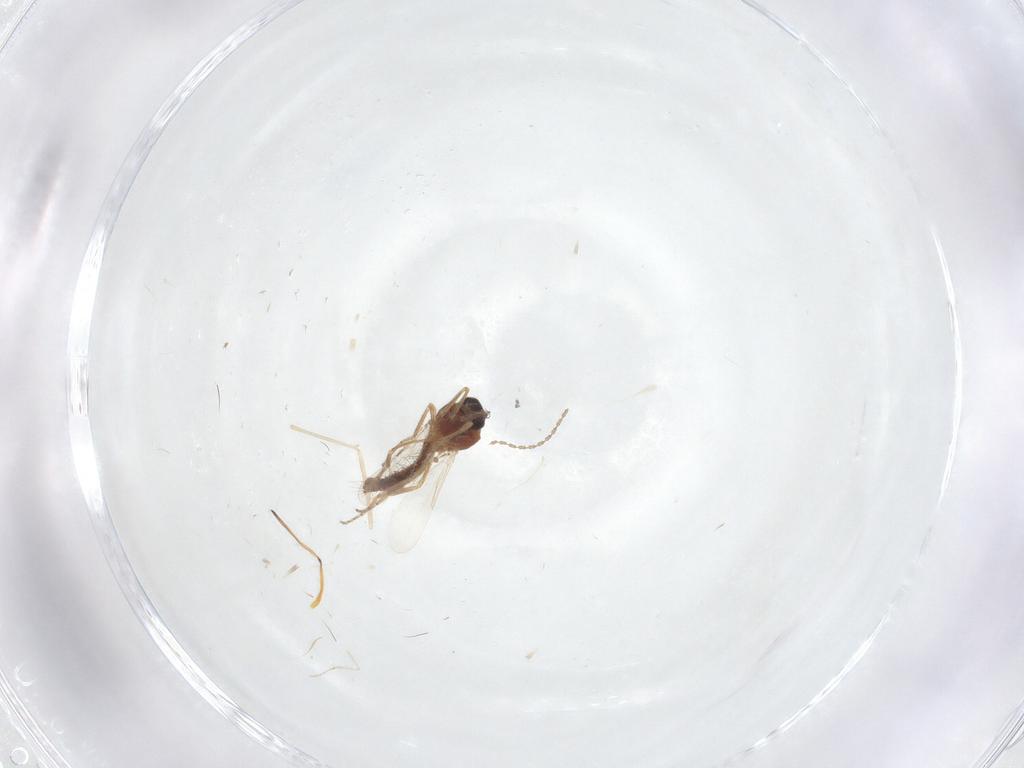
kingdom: Animalia
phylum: Arthropoda
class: Insecta
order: Diptera
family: Ceratopogonidae
